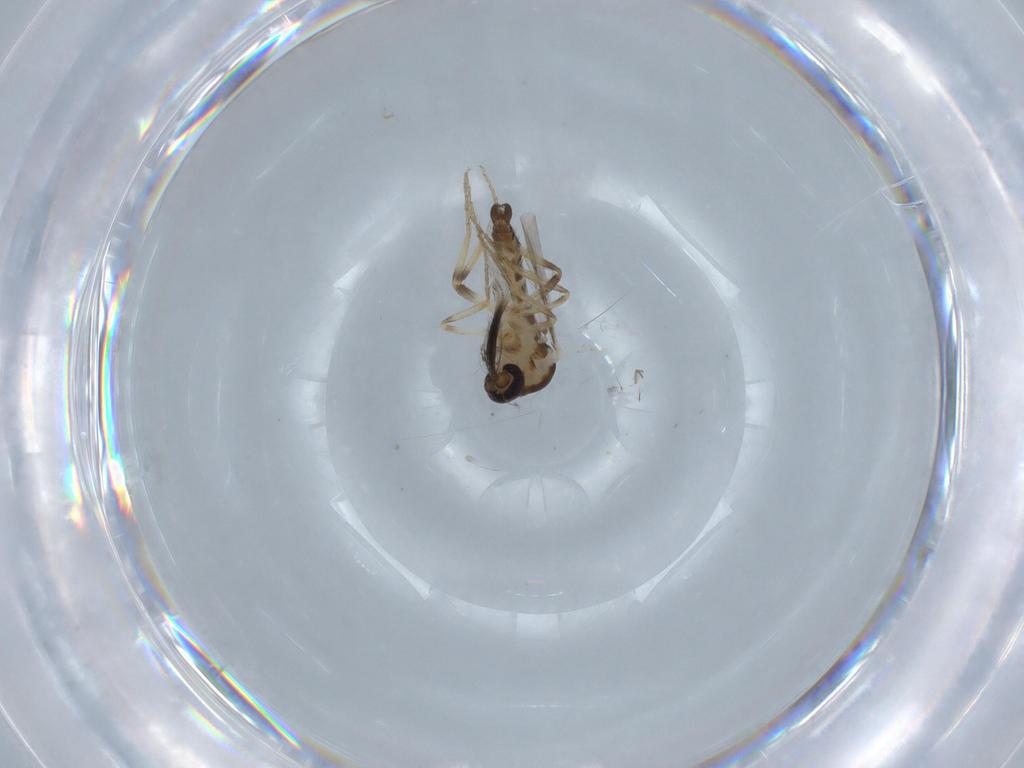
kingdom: Animalia
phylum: Arthropoda
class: Insecta
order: Diptera
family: Ceratopogonidae
